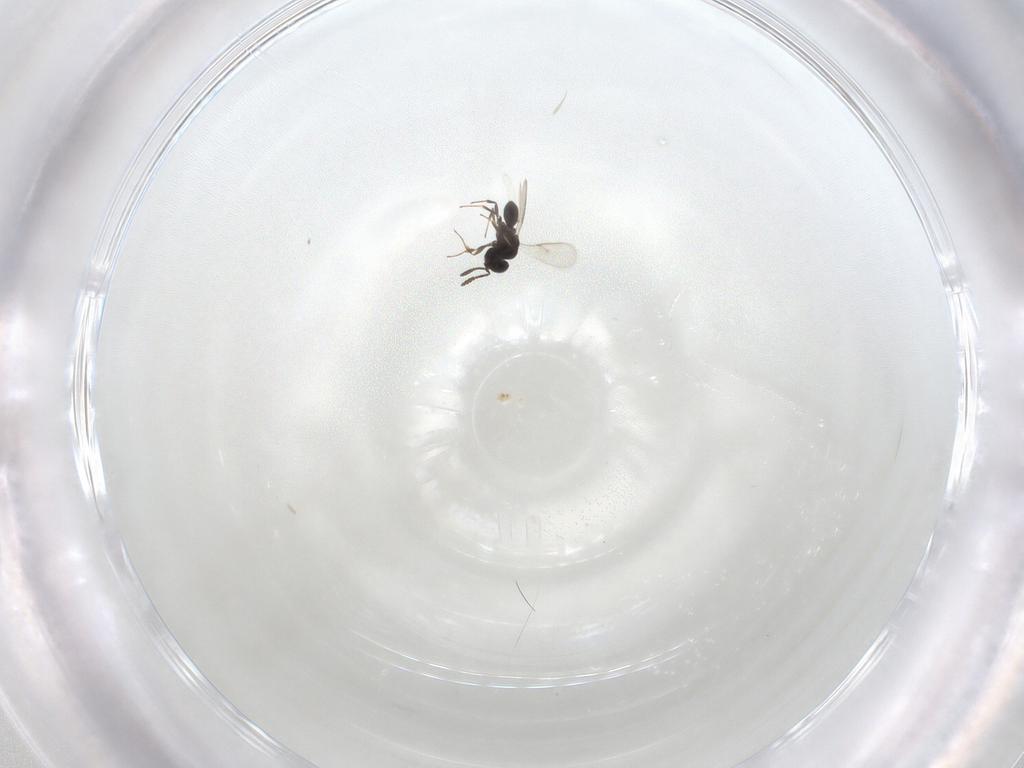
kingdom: Animalia
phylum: Arthropoda
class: Insecta
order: Hymenoptera
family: Scelionidae
